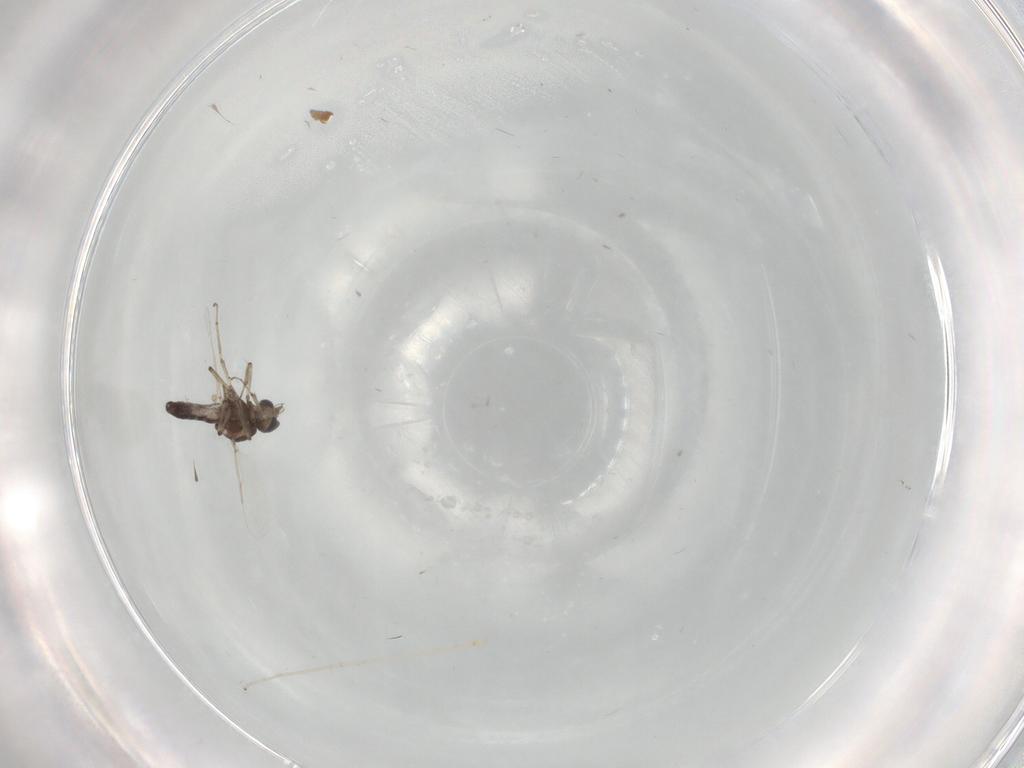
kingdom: Animalia
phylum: Arthropoda
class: Insecta
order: Diptera
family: Ceratopogonidae
